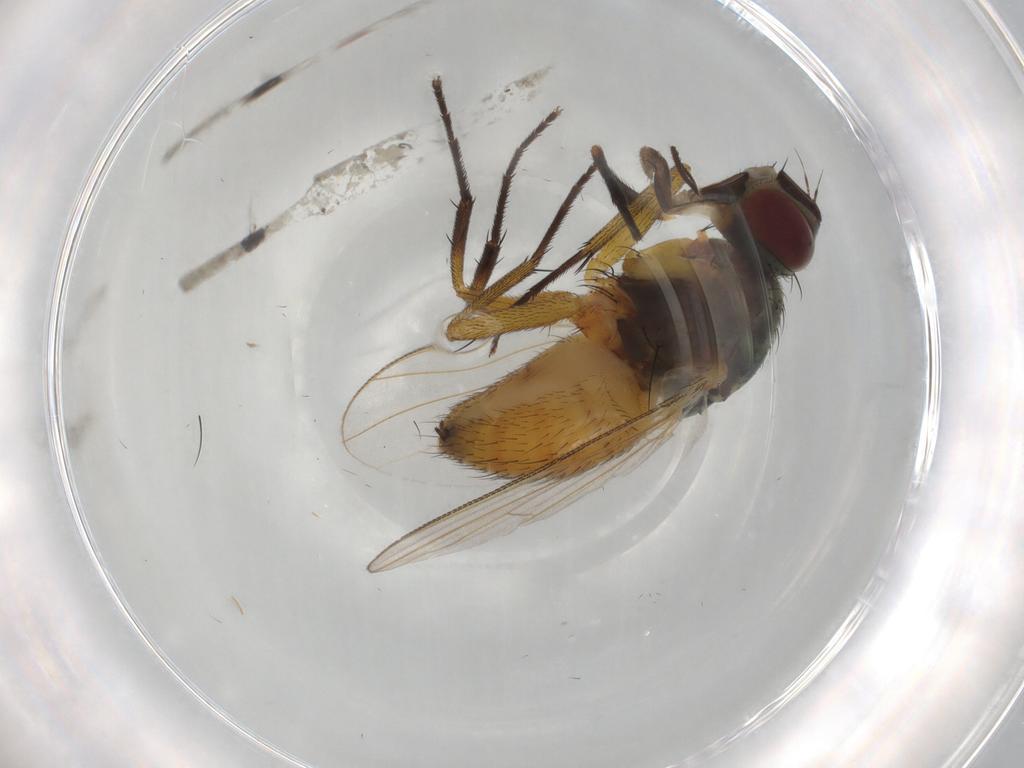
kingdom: Animalia
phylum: Arthropoda
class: Insecta
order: Diptera
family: Muscidae
